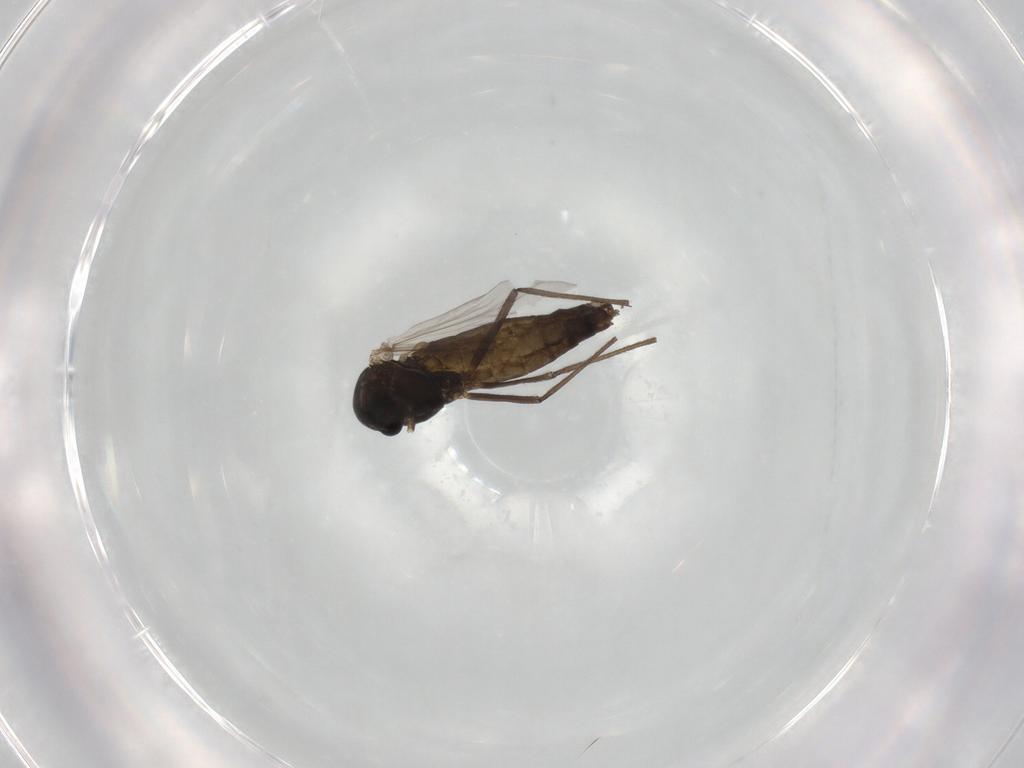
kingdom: Animalia
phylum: Arthropoda
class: Insecta
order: Diptera
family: Chironomidae
